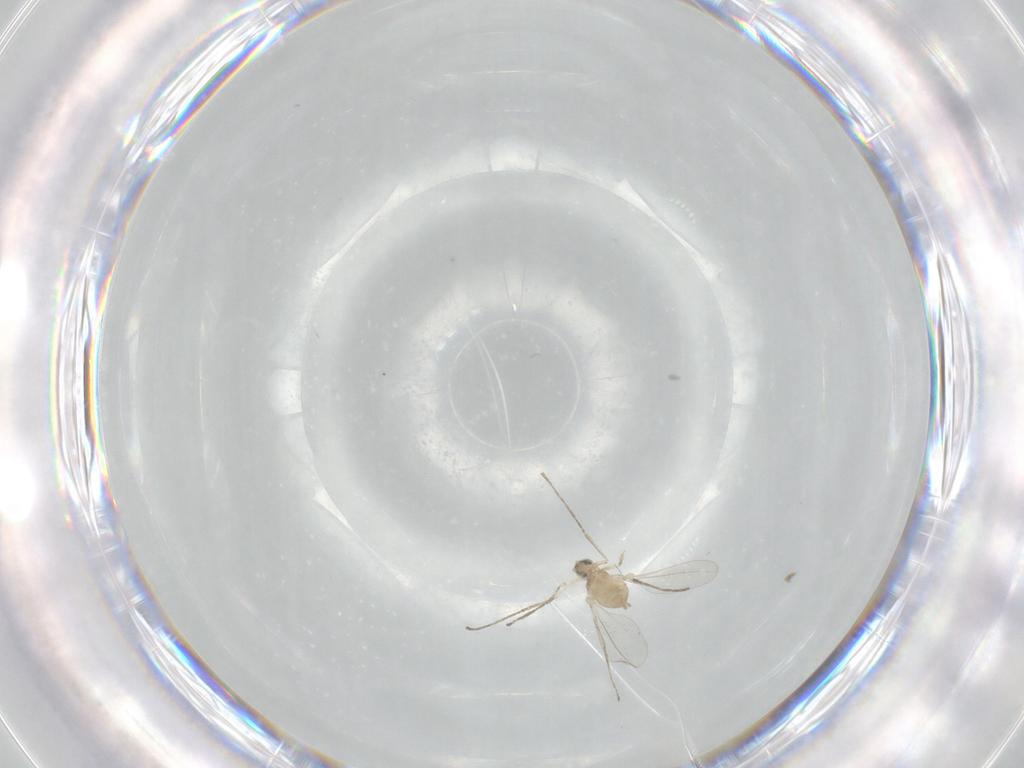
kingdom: Animalia
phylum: Arthropoda
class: Insecta
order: Diptera
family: Cecidomyiidae
